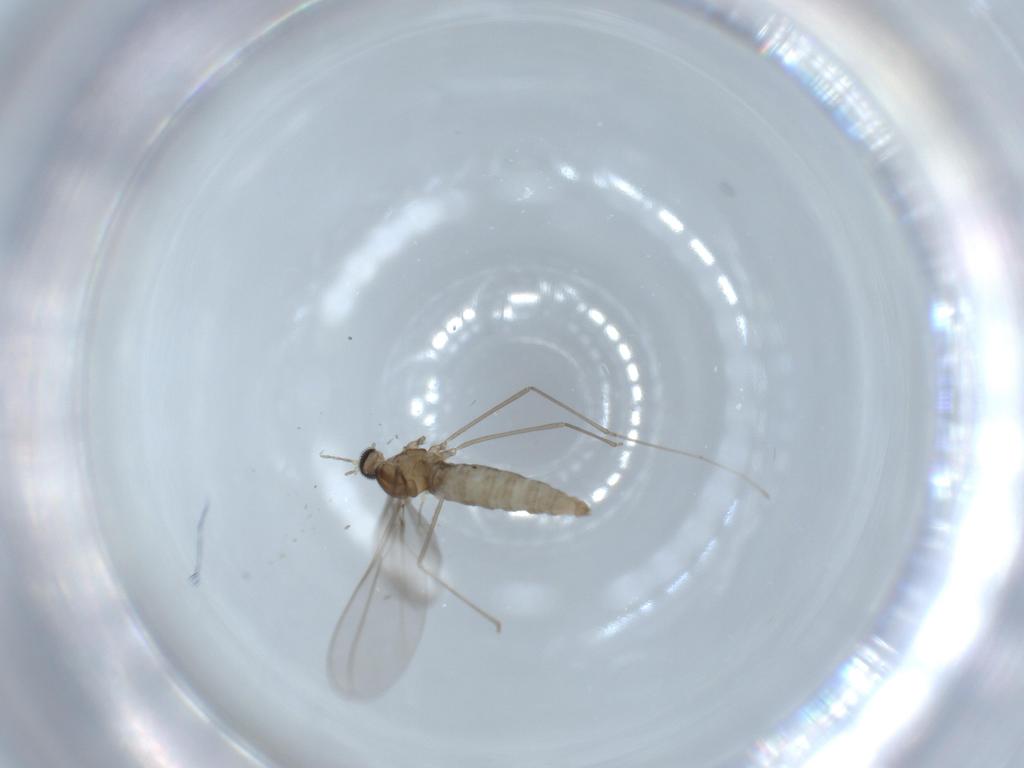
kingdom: Animalia
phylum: Arthropoda
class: Insecta
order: Diptera
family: Cecidomyiidae
